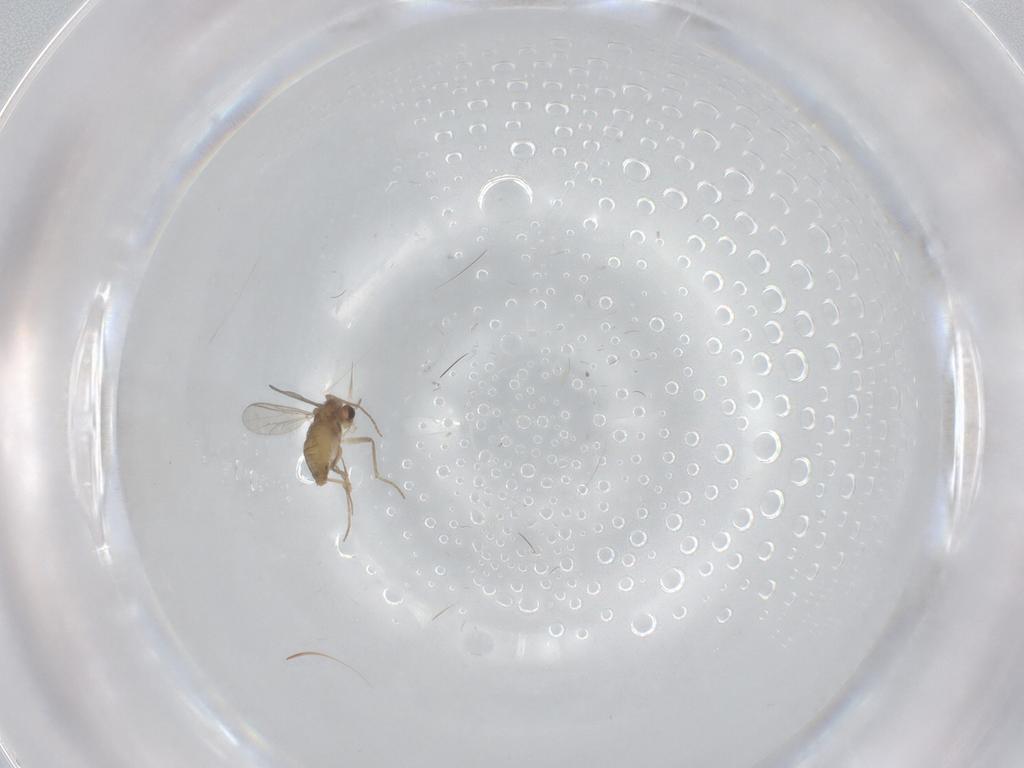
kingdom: Animalia
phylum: Arthropoda
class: Insecta
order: Diptera
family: Chironomidae
